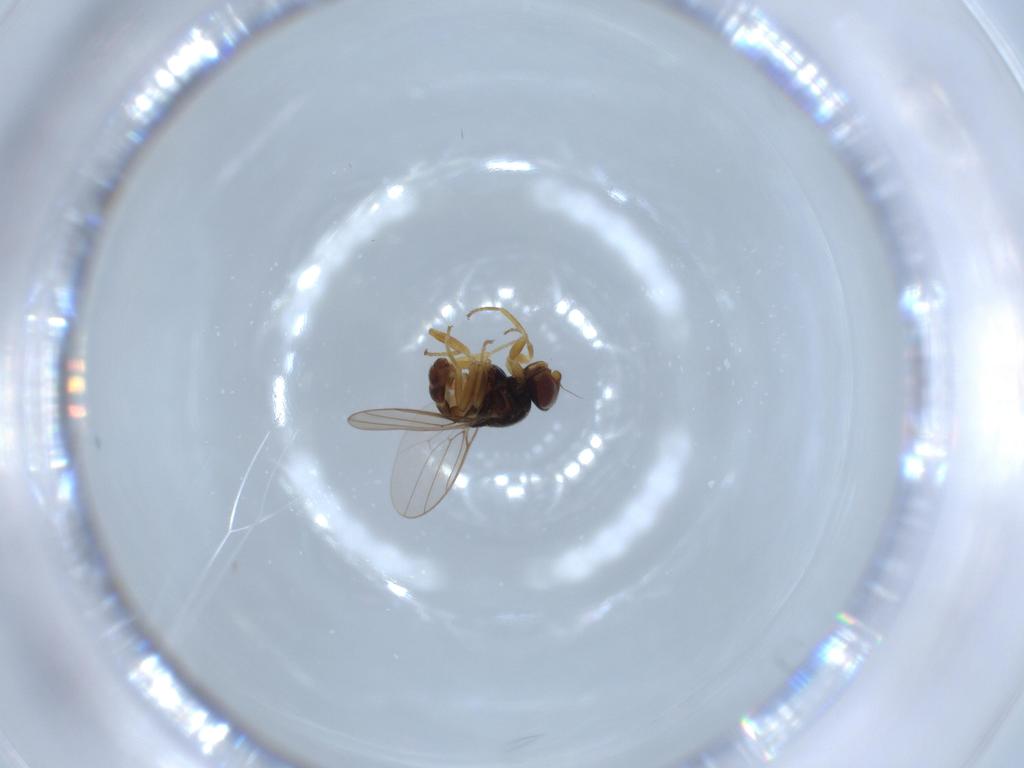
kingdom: Animalia
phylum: Arthropoda
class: Insecta
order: Diptera
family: Chloropidae
